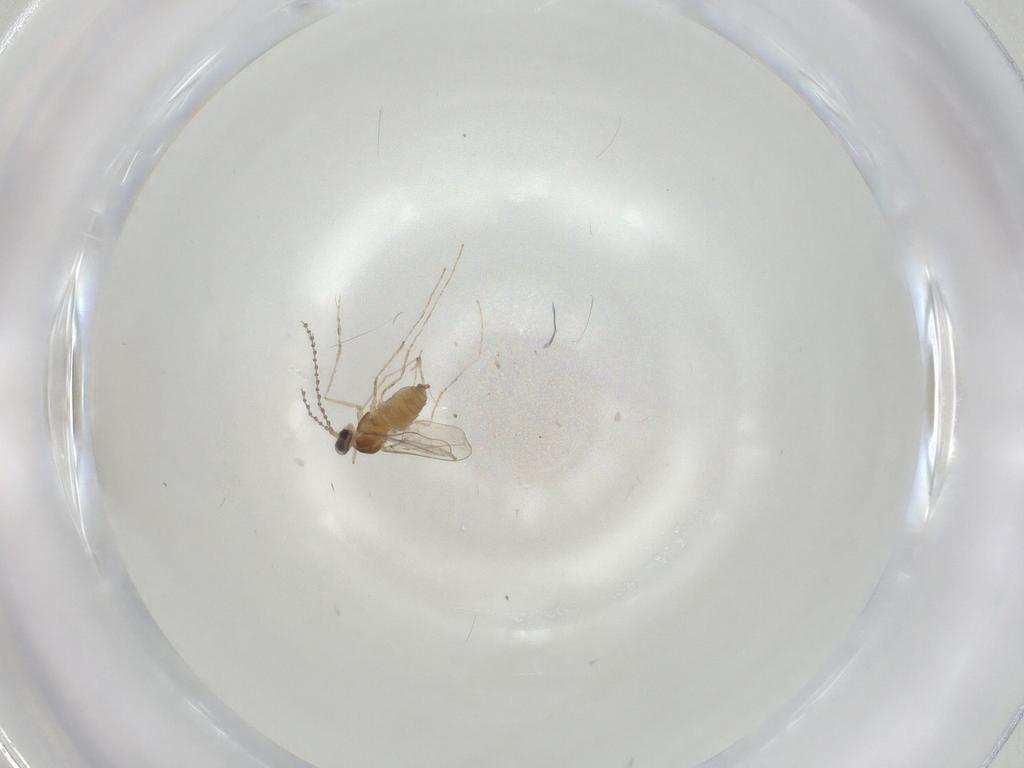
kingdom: Animalia
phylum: Arthropoda
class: Insecta
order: Diptera
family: Cecidomyiidae
